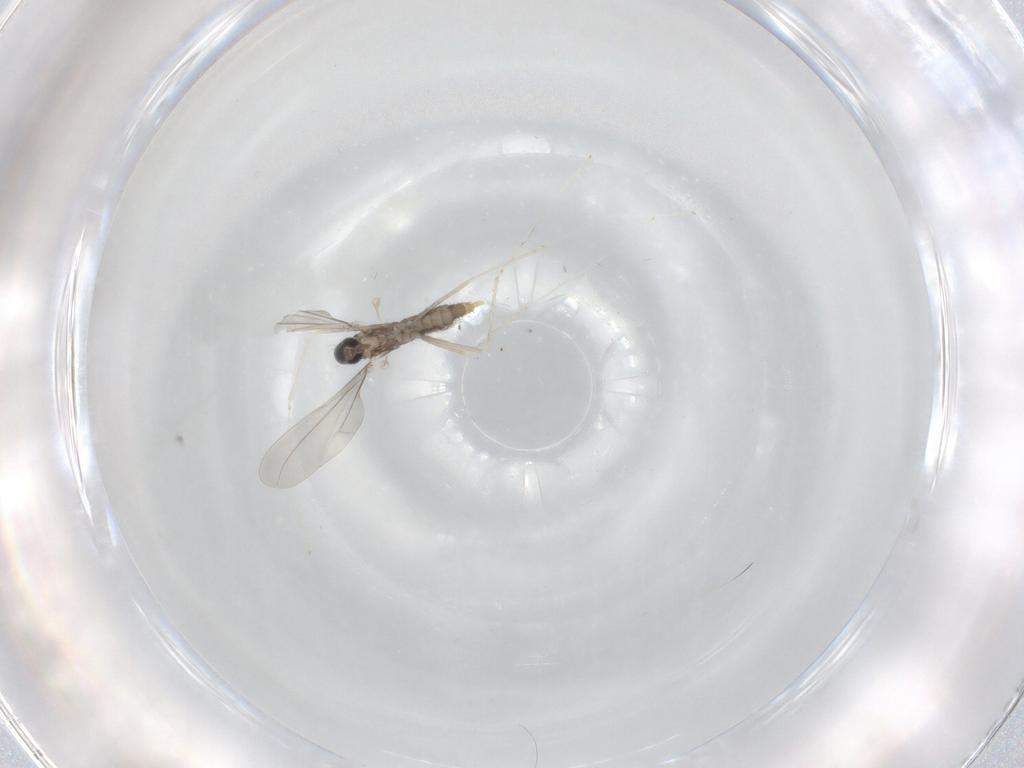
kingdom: Animalia
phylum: Arthropoda
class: Insecta
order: Diptera
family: Cecidomyiidae
